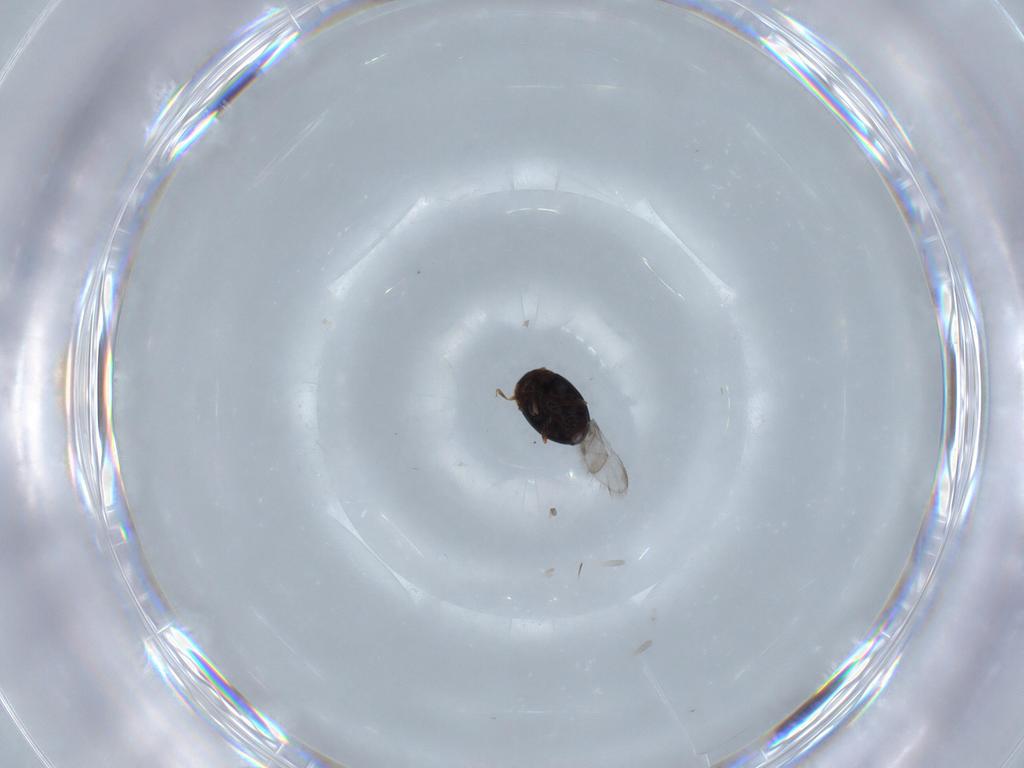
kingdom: Animalia
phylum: Arthropoda
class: Insecta
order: Coleoptera
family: Corylophidae
